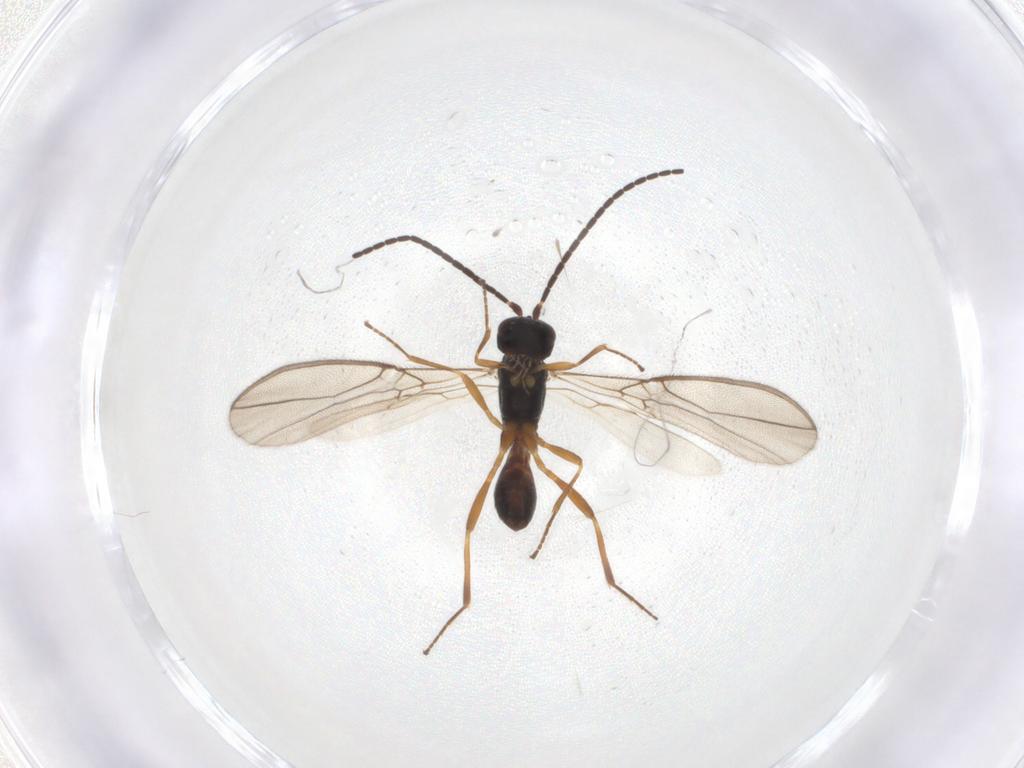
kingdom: Animalia
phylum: Arthropoda
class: Insecta
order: Hymenoptera
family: Braconidae
